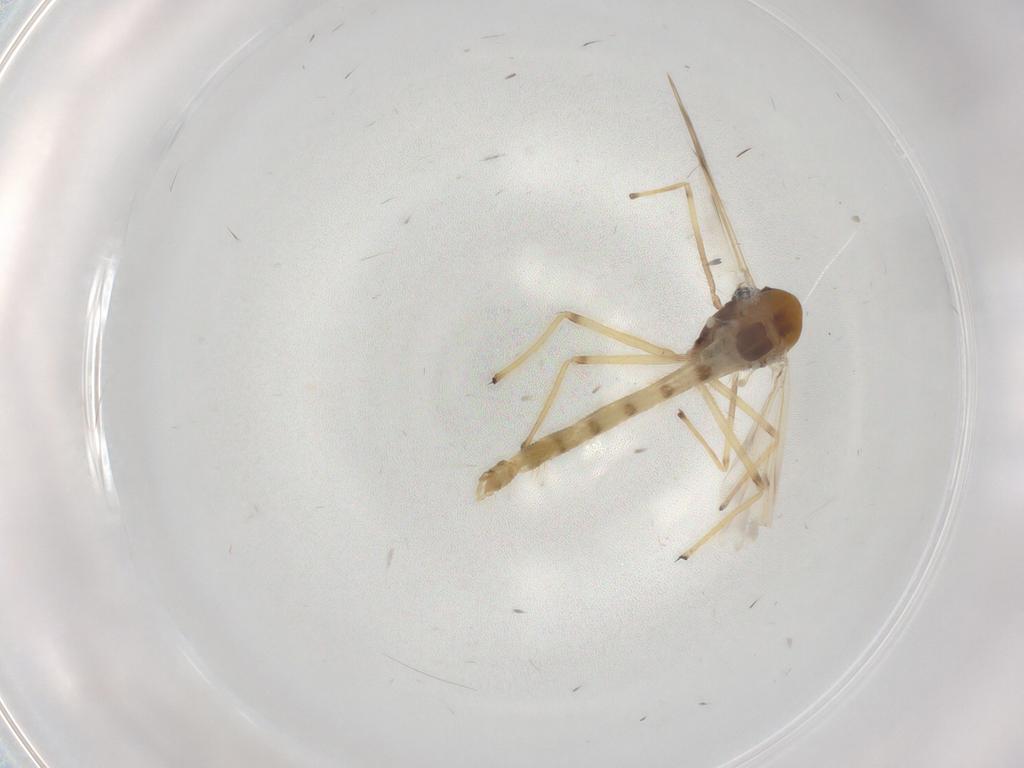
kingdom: Animalia
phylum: Arthropoda
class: Insecta
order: Diptera
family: Chironomidae
